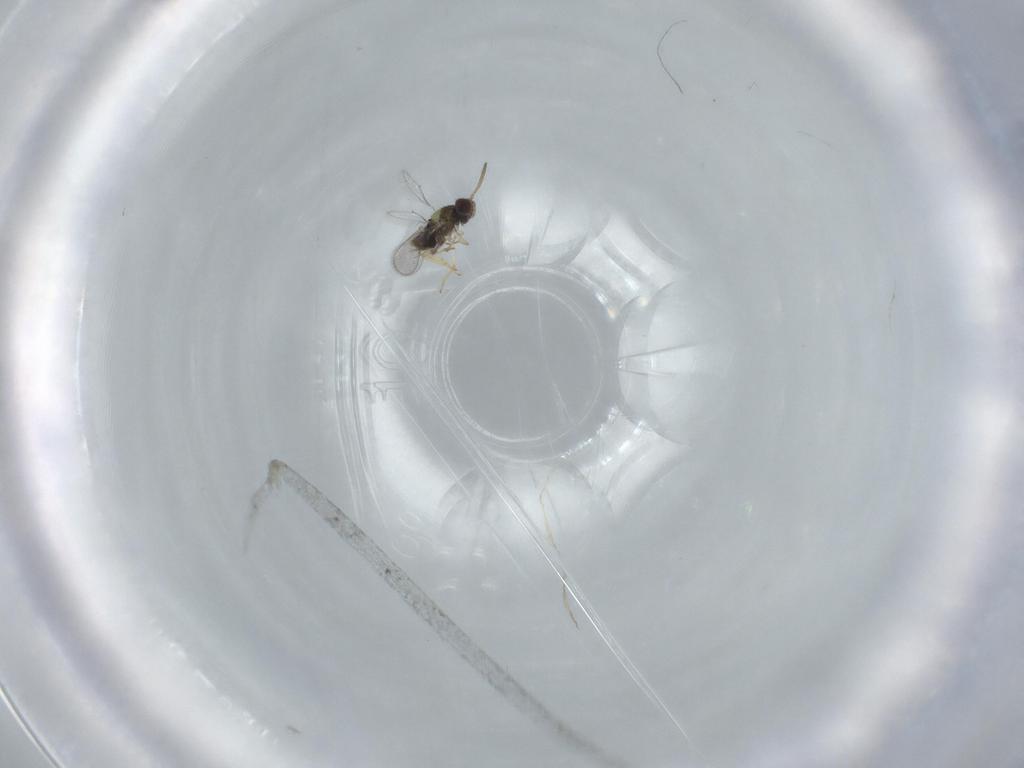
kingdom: Animalia
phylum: Arthropoda
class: Insecta
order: Hymenoptera
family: Aphelinidae
